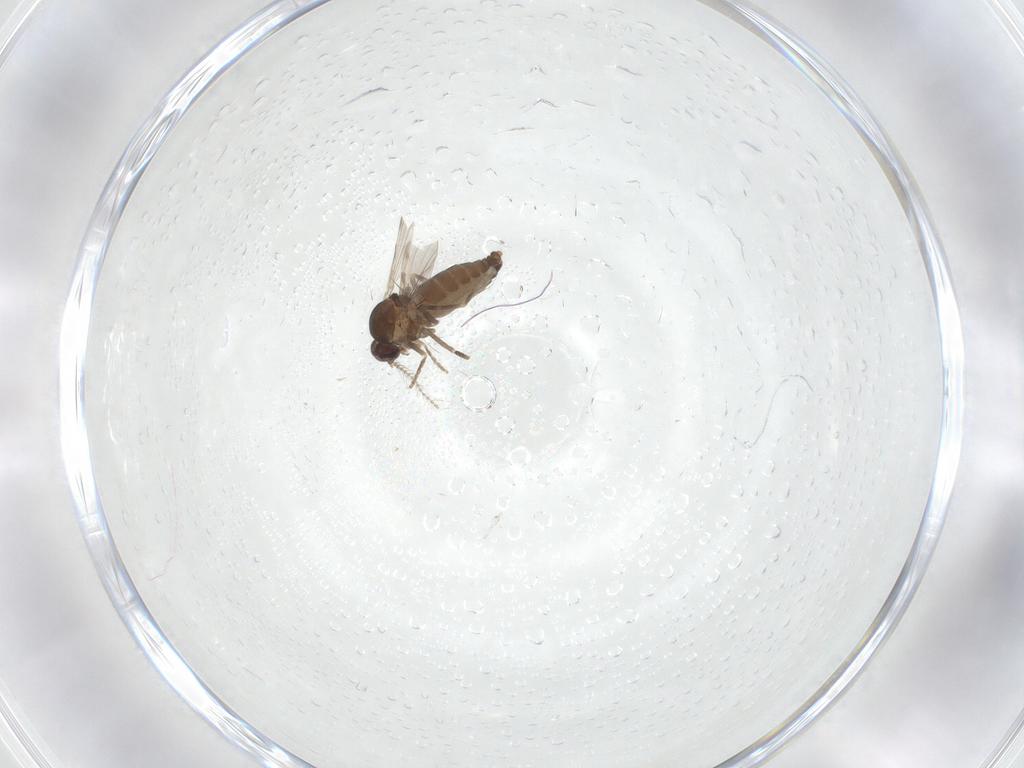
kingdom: Animalia
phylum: Arthropoda
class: Insecta
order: Diptera
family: Ceratopogonidae
